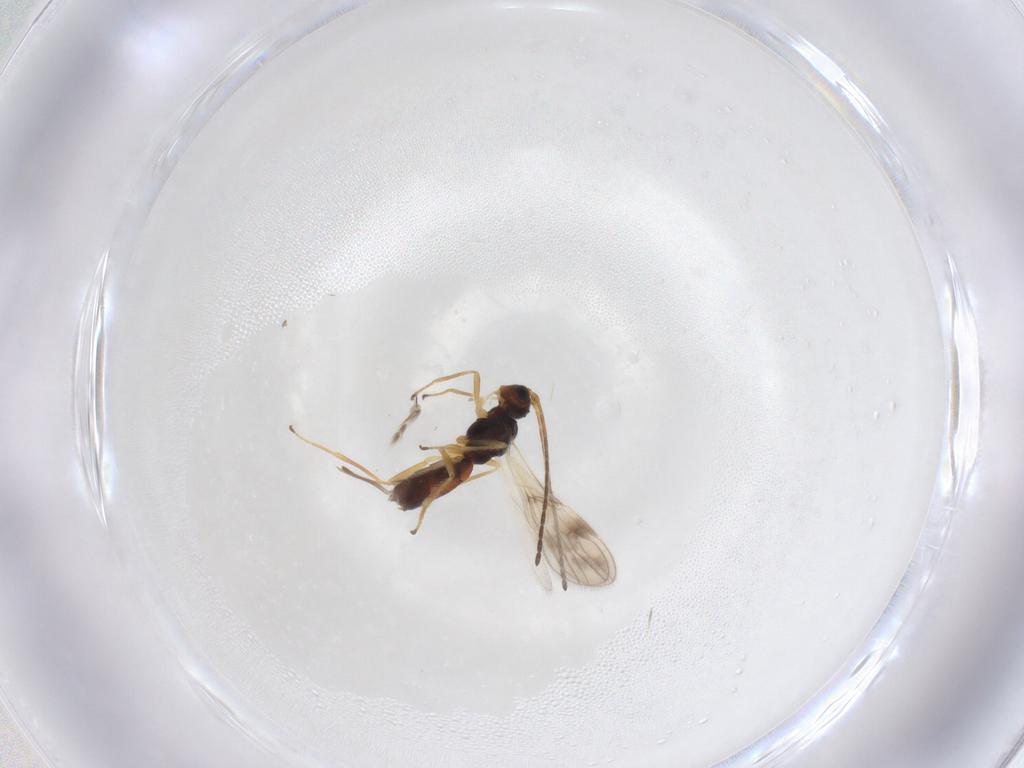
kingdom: Animalia
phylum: Arthropoda
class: Insecta
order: Hymenoptera
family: Braconidae
